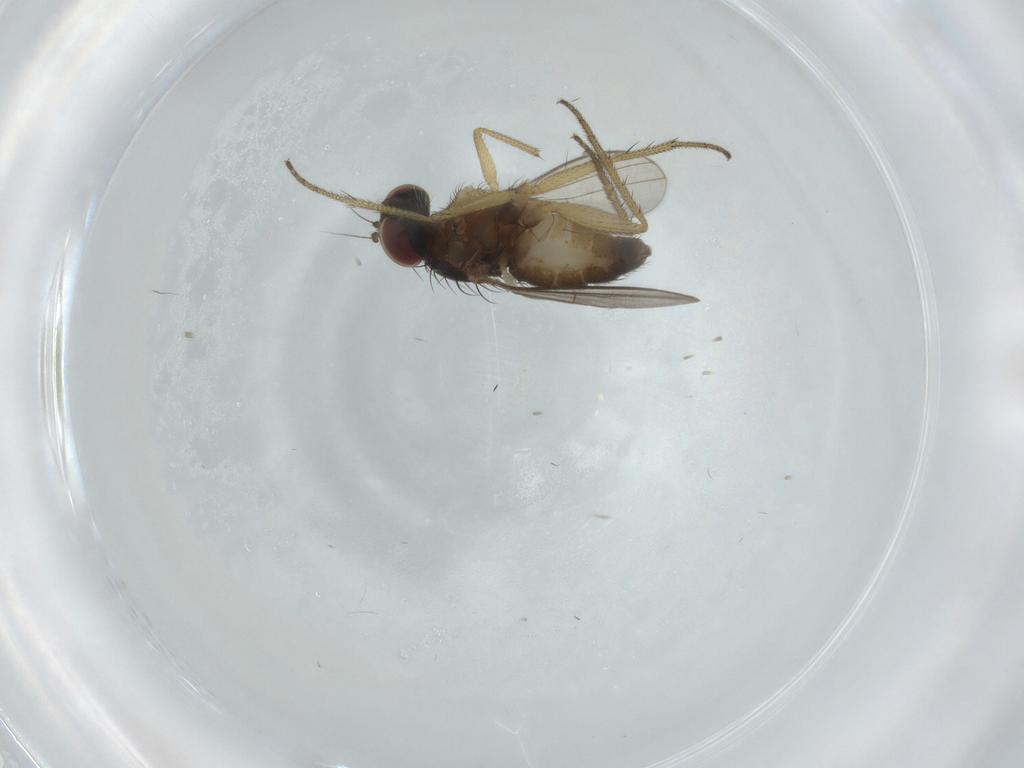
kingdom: Animalia
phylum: Arthropoda
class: Insecta
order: Diptera
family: Dolichopodidae
